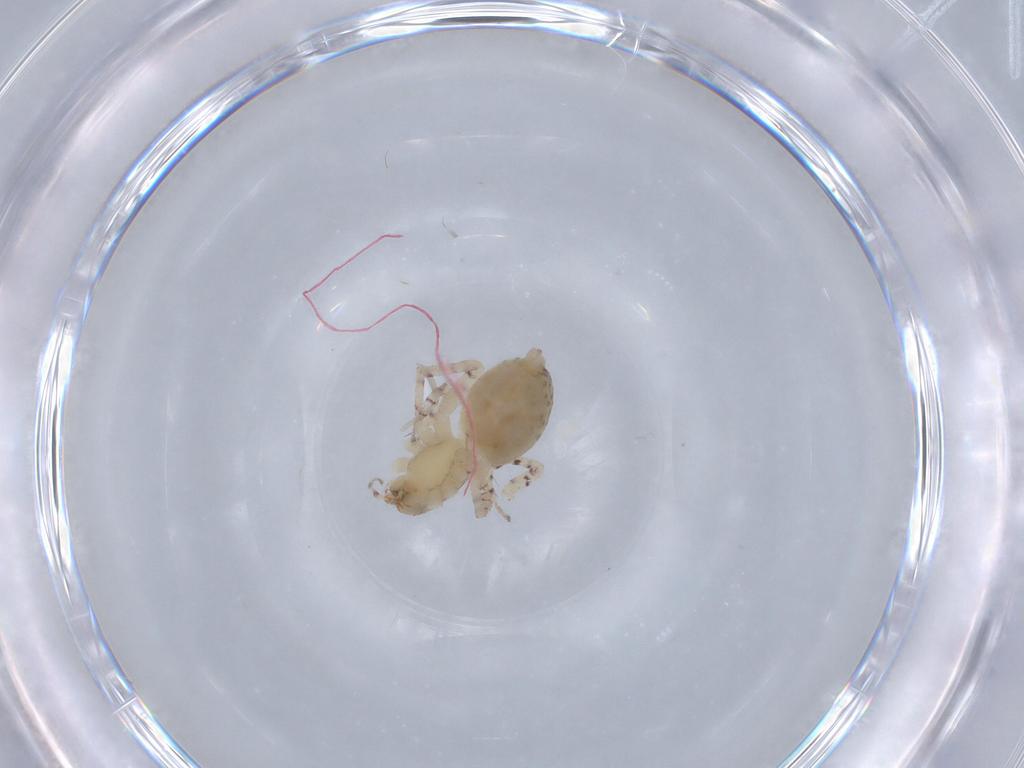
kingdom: Animalia
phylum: Arthropoda
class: Arachnida
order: Araneae
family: Anyphaenidae
